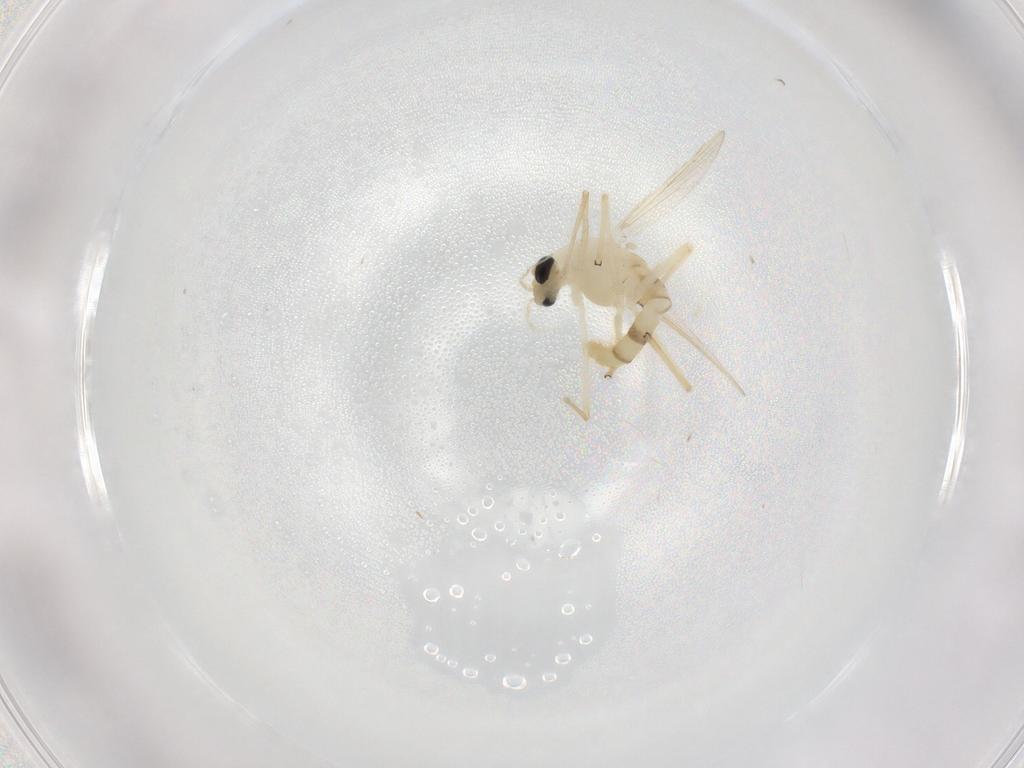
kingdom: Animalia
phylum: Arthropoda
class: Insecta
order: Diptera
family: Chironomidae
